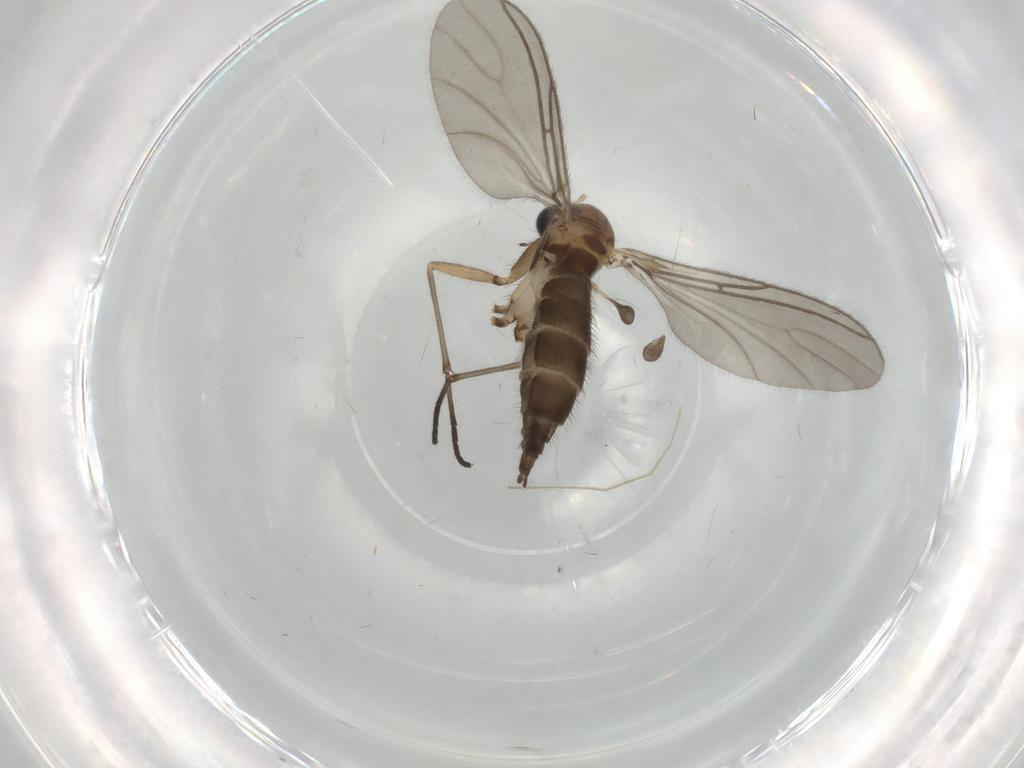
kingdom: Animalia
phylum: Arthropoda
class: Insecta
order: Diptera
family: Sciaridae
